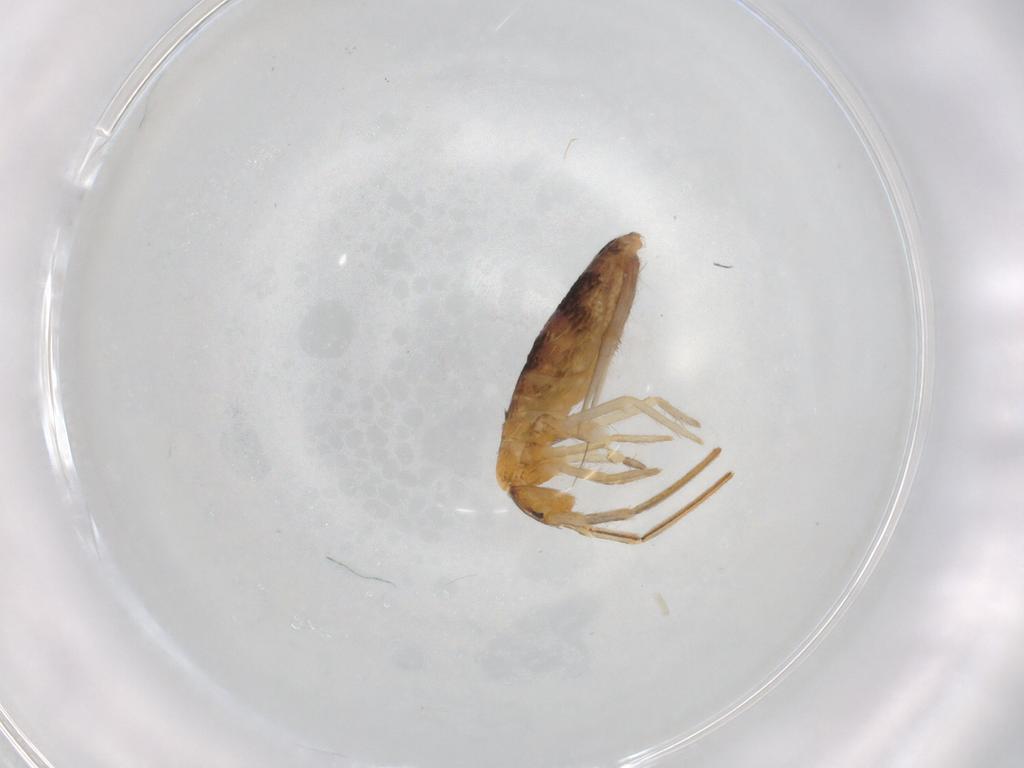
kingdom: Animalia
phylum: Arthropoda
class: Collembola
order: Entomobryomorpha
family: Entomobryidae
